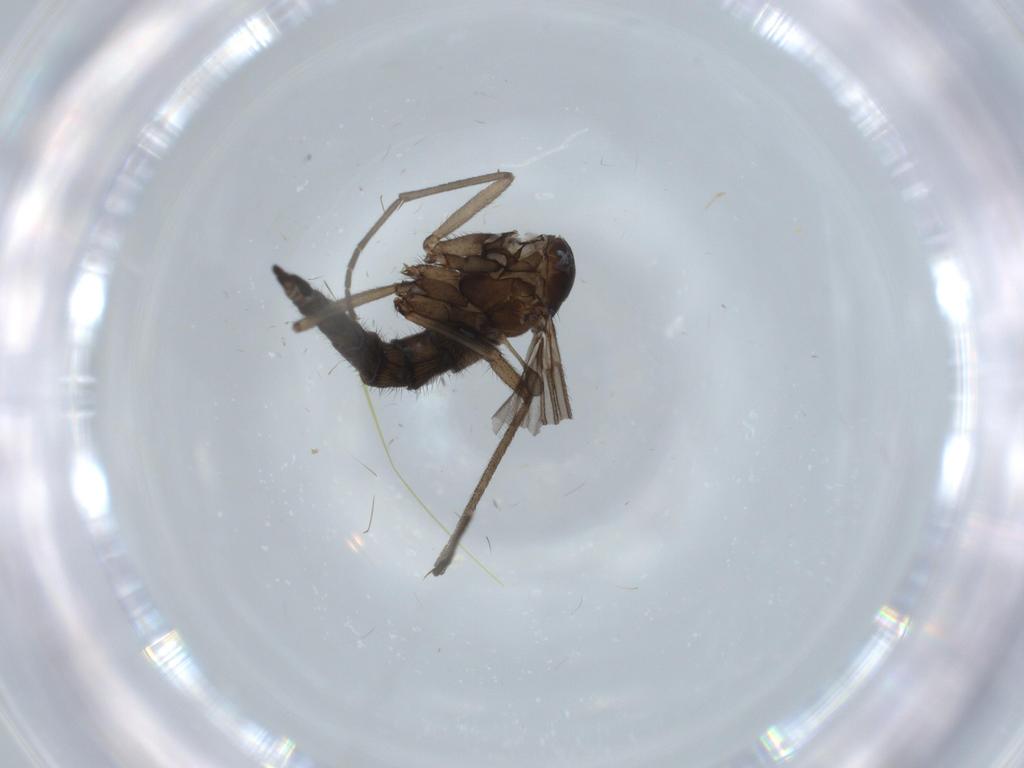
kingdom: Animalia
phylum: Arthropoda
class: Insecta
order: Diptera
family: Sciaridae
